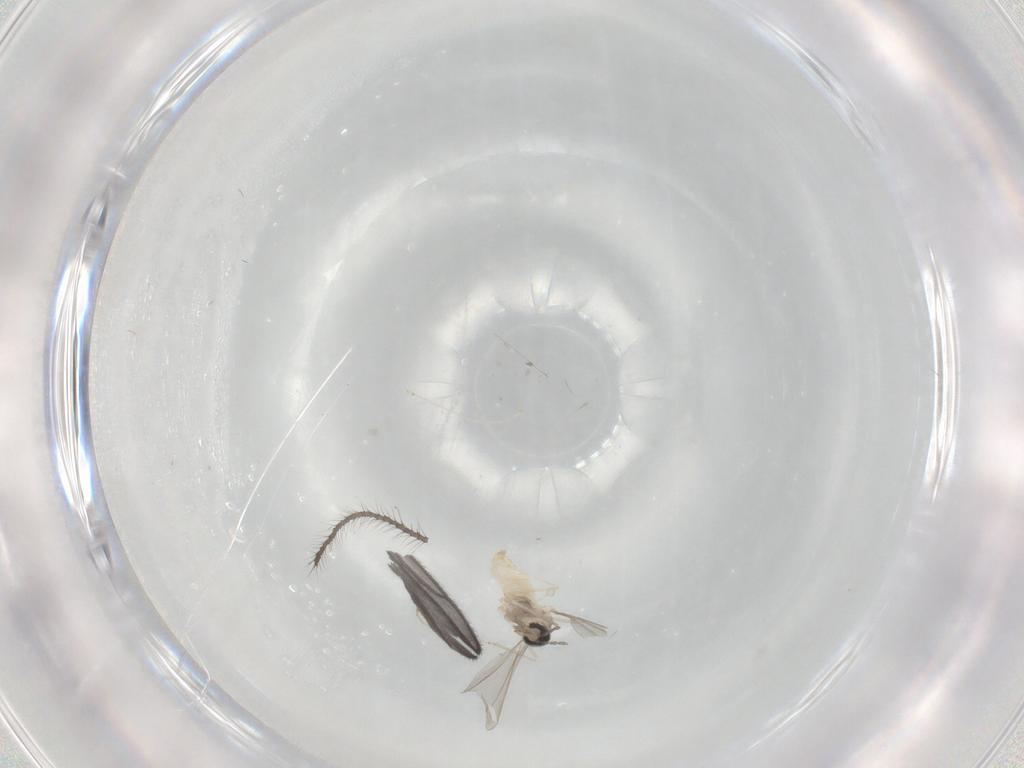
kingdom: Animalia
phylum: Arthropoda
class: Insecta
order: Diptera
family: Cecidomyiidae
